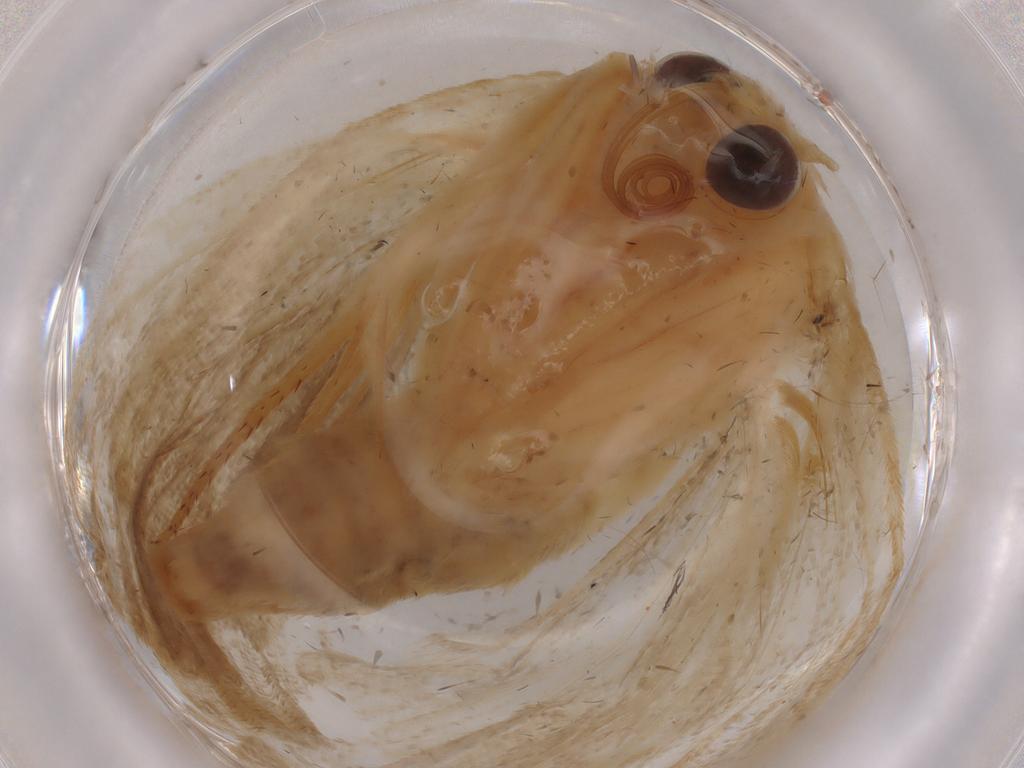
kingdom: Animalia
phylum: Arthropoda
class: Insecta
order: Lepidoptera
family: Erebidae
